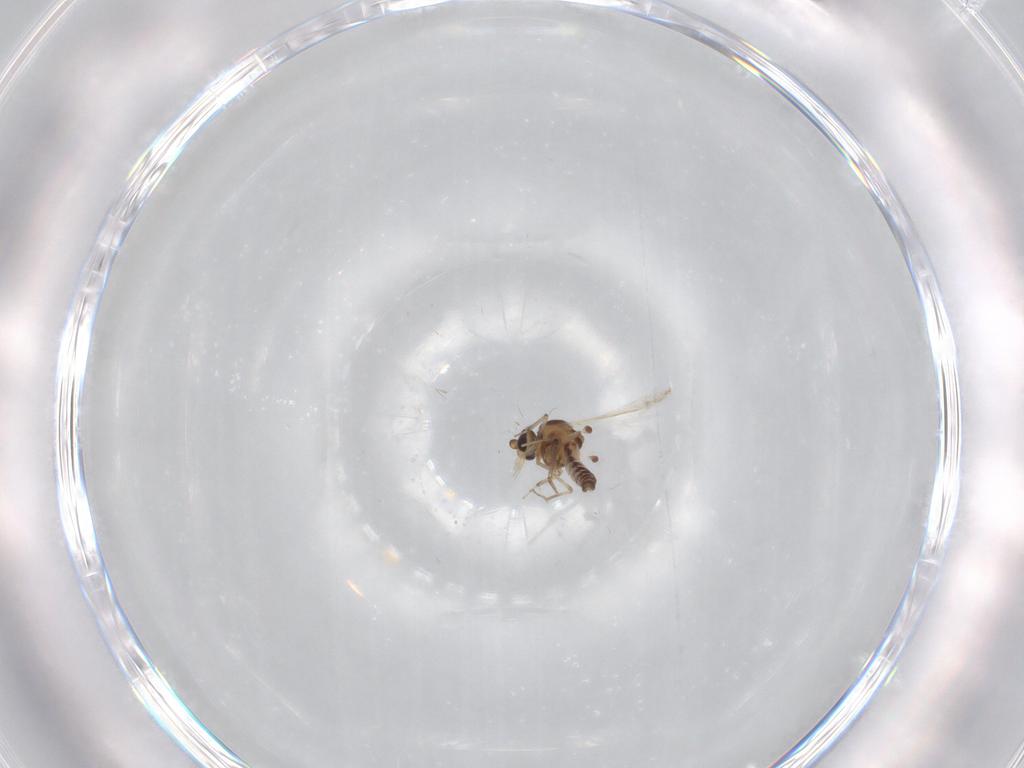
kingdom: Animalia
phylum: Arthropoda
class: Insecta
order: Diptera
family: Ceratopogonidae
